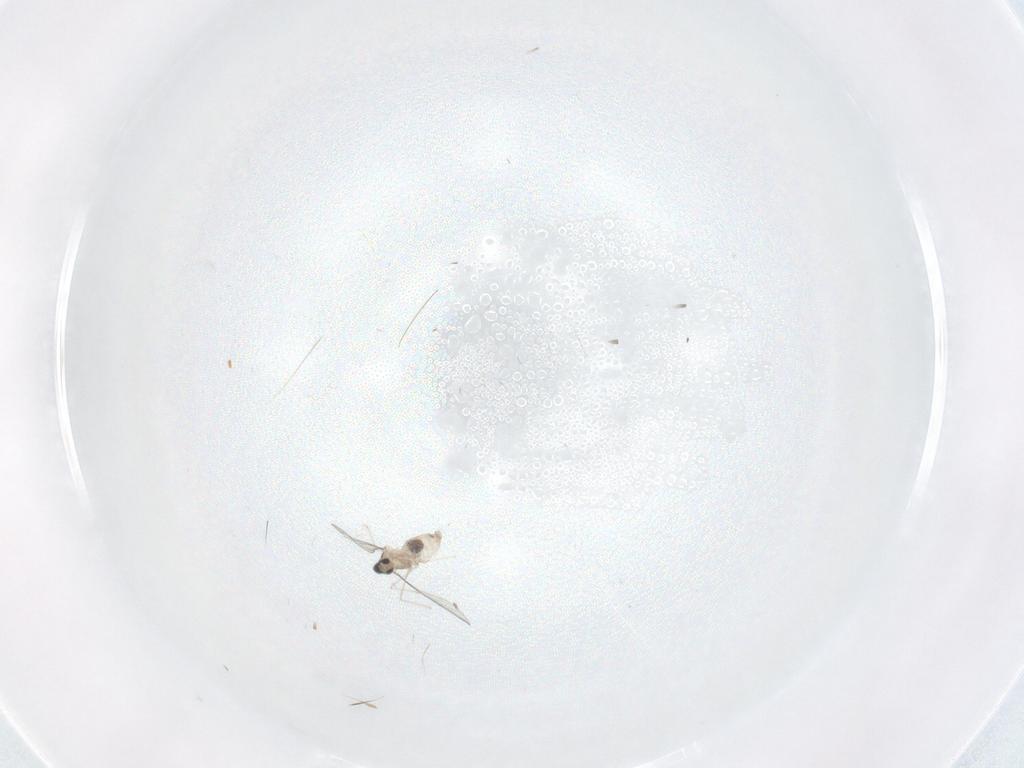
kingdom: Animalia
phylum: Arthropoda
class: Insecta
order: Diptera
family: Cecidomyiidae
